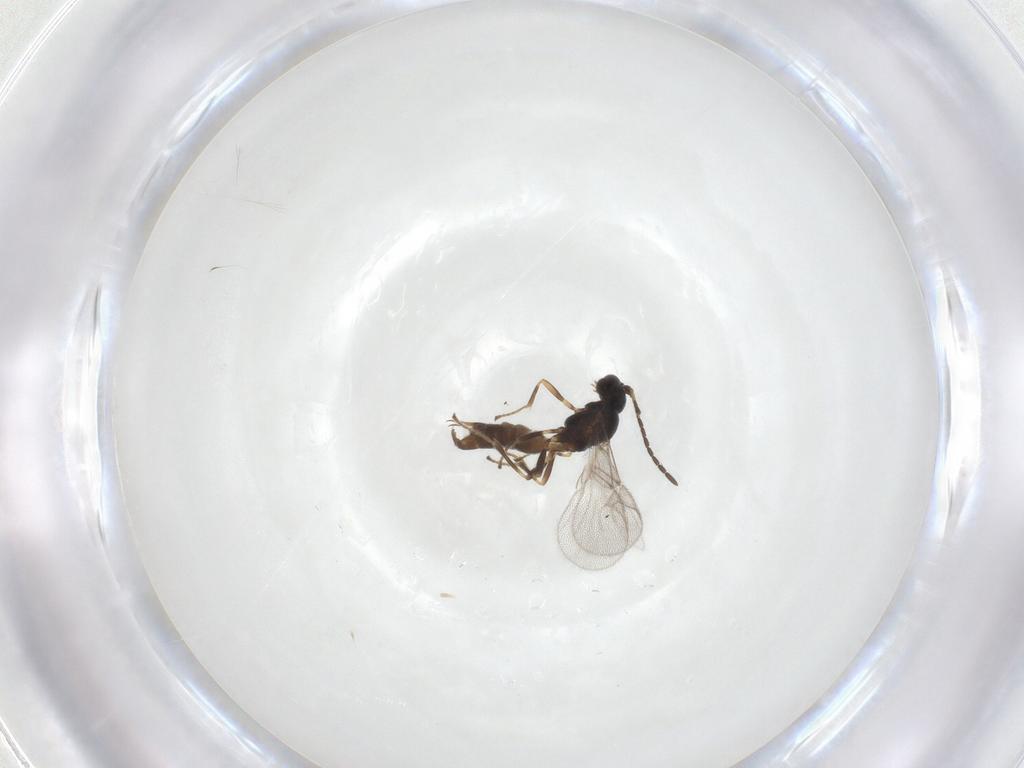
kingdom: Animalia
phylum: Arthropoda
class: Insecta
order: Hymenoptera
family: Braconidae
